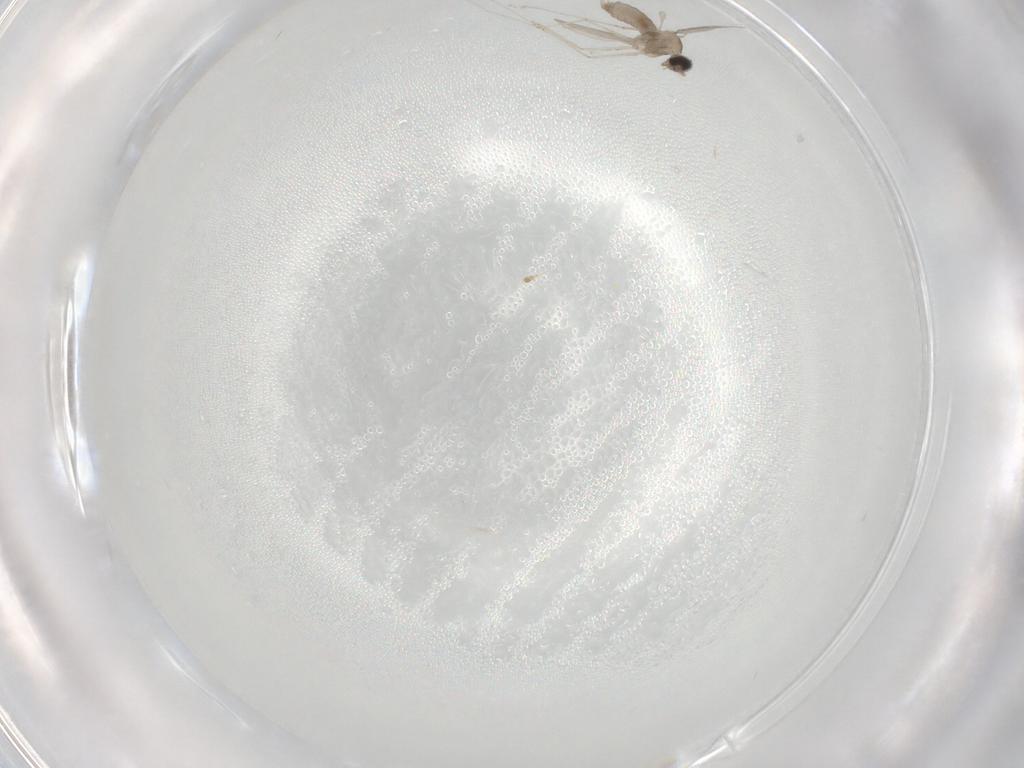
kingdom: Animalia
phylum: Arthropoda
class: Insecta
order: Diptera
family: Cecidomyiidae
